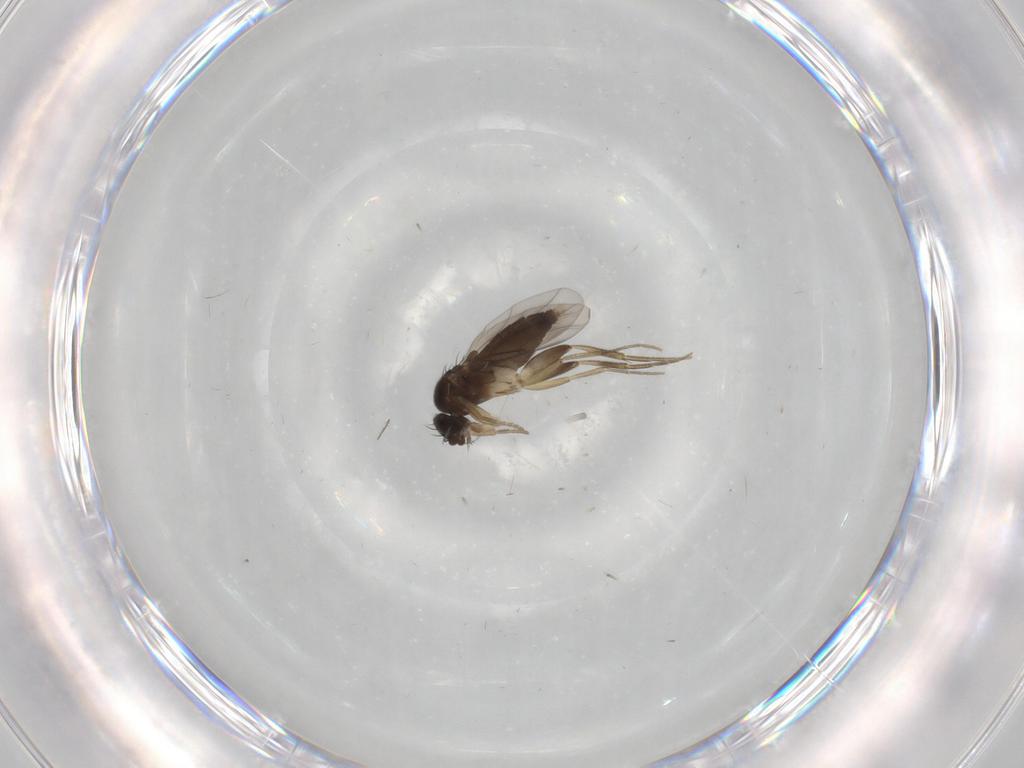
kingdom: Animalia
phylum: Arthropoda
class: Insecta
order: Diptera
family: Phoridae
